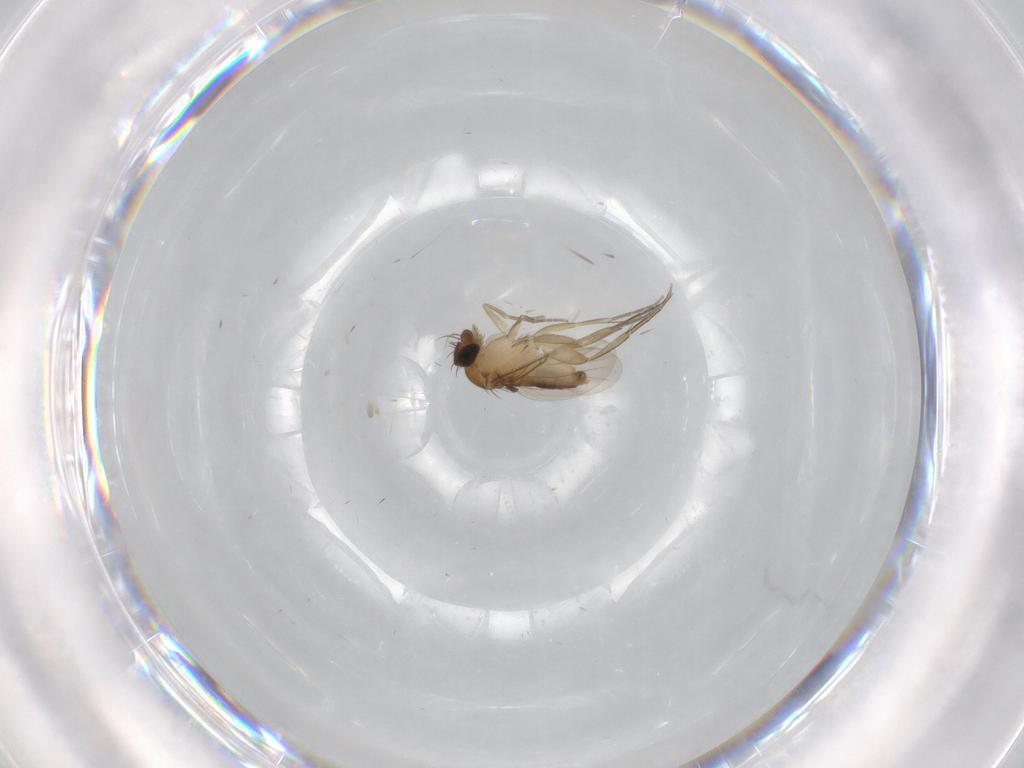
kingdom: Animalia
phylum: Arthropoda
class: Insecta
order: Diptera
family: Phoridae
